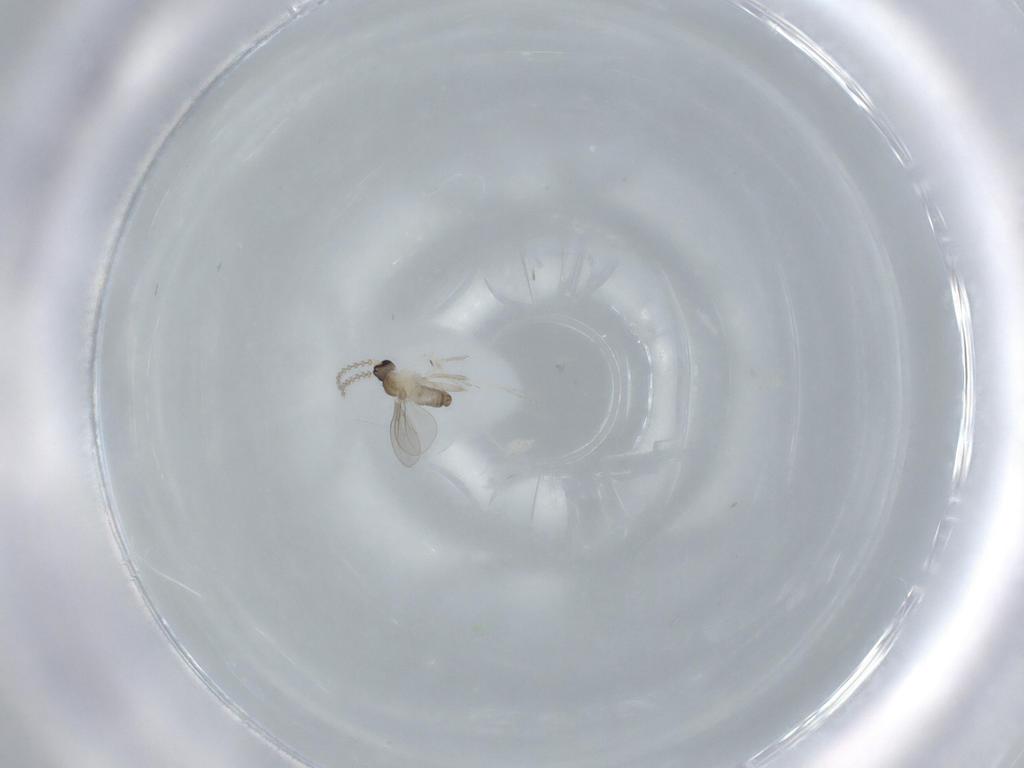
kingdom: Animalia
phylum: Arthropoda
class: Insecta
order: Diptera
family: Cecidomyiidae
